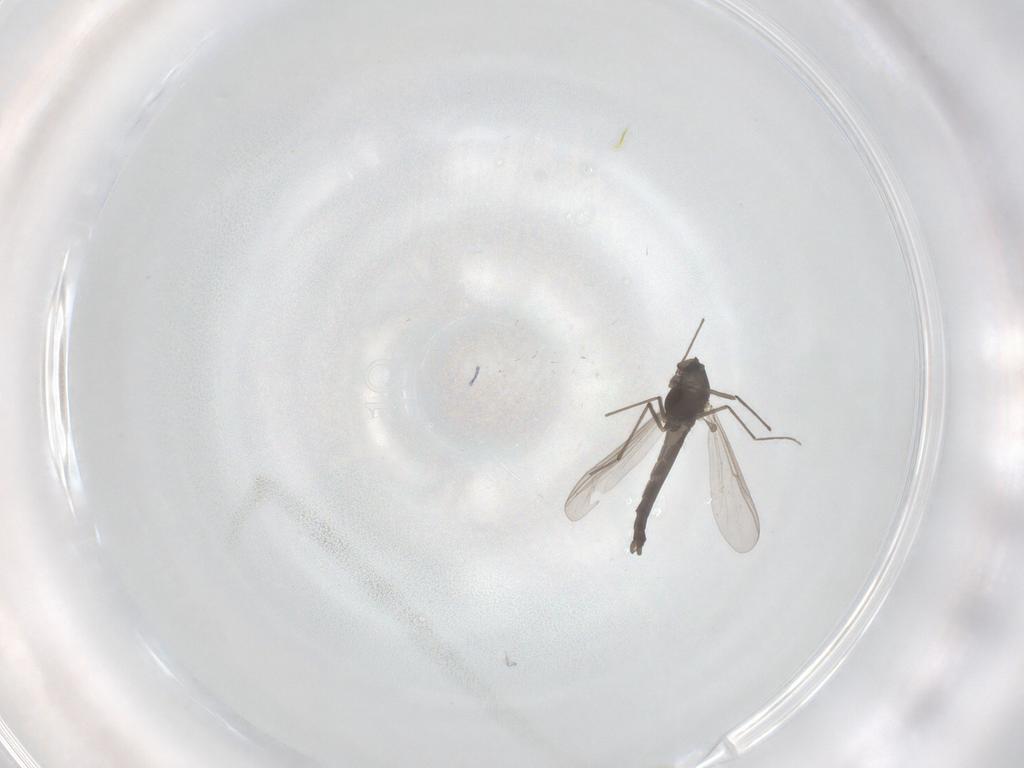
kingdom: Animalia
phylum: Arthropoda
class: Insecta
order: Diptera
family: Chironomidae
